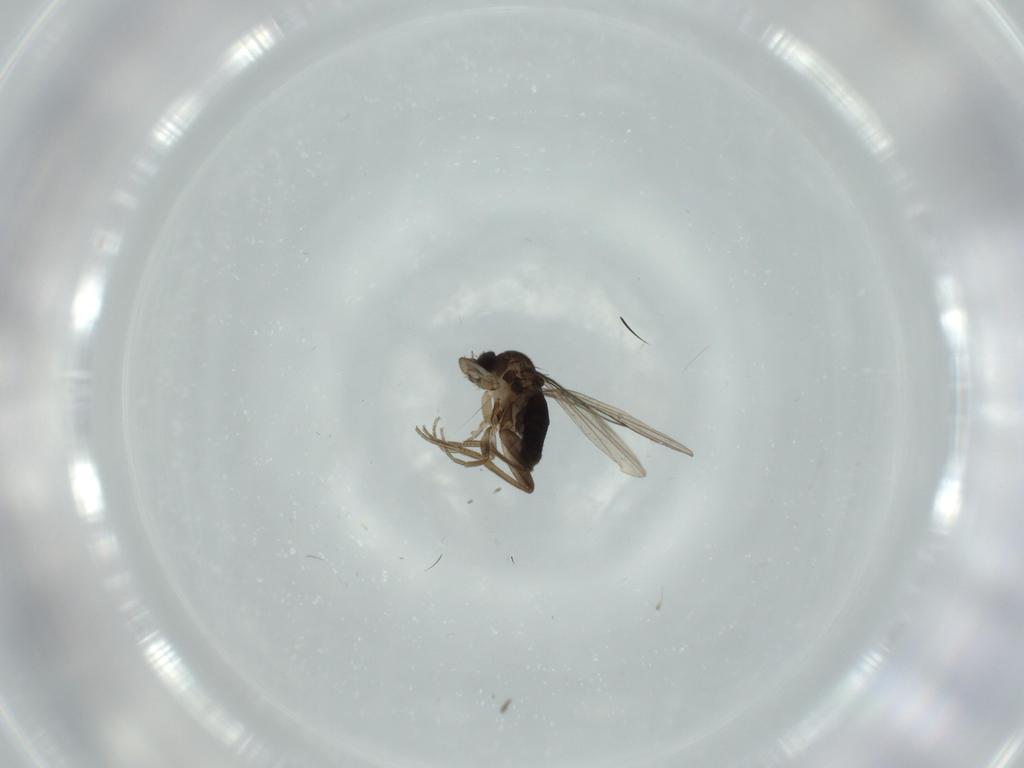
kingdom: Animalia
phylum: Arthropoda
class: Insecta
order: Diptera
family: Phoridae
